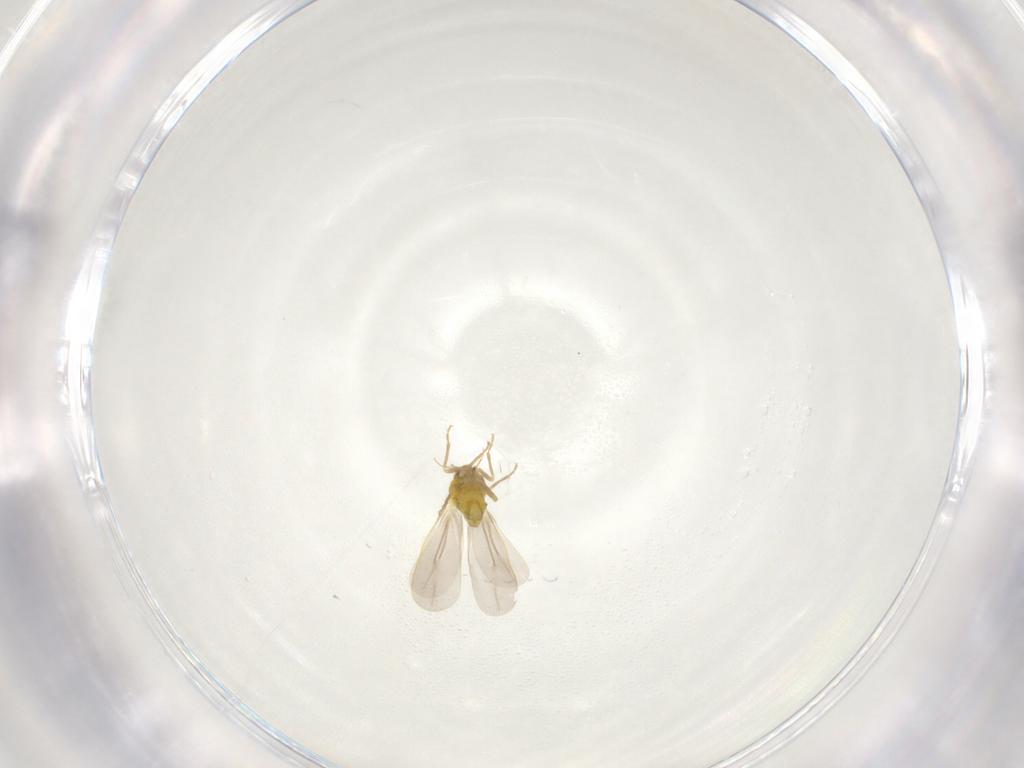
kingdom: Animalia
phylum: Arthropoda
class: Insecta
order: Hemiptera
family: Aleyrodidae
